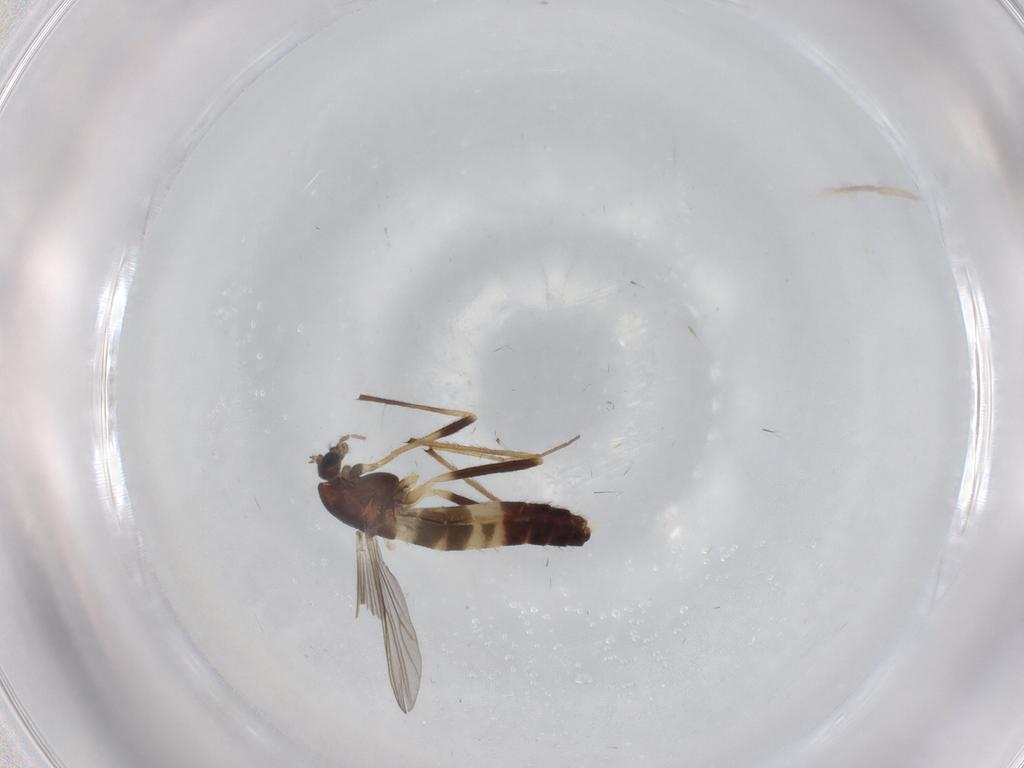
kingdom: Animalia
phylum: Arthropoda
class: Insecta
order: Diptera
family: Chironomidae
